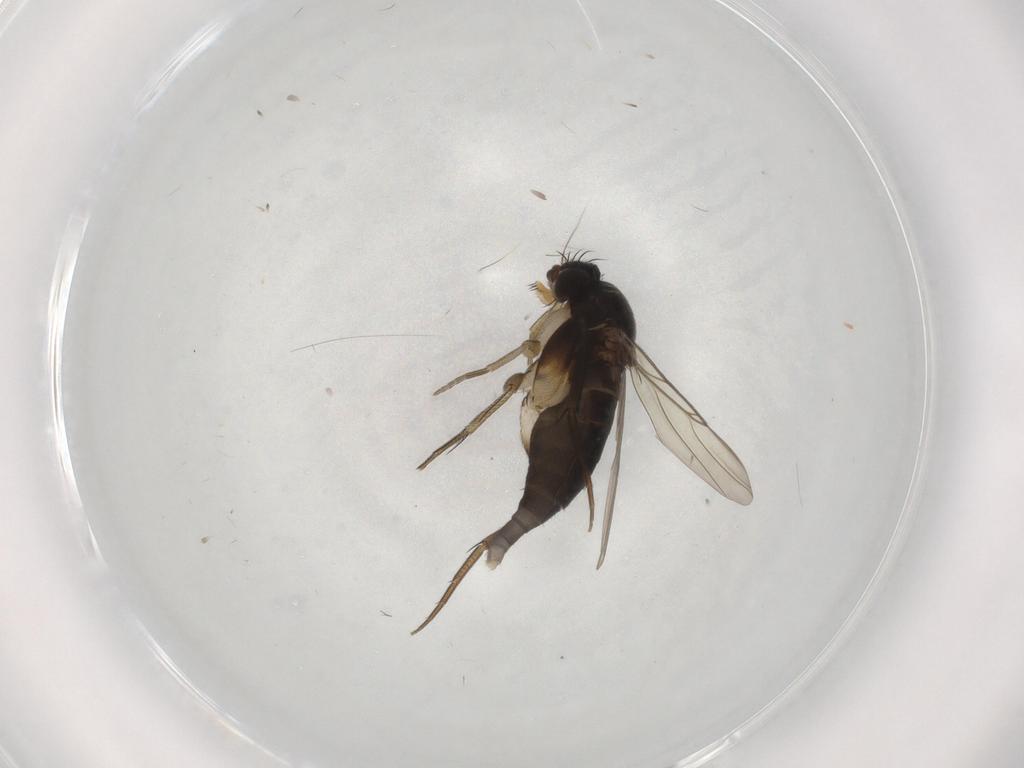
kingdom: Animalia
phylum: Arthropoda
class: Insecta
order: Diptera
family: Phoridae
